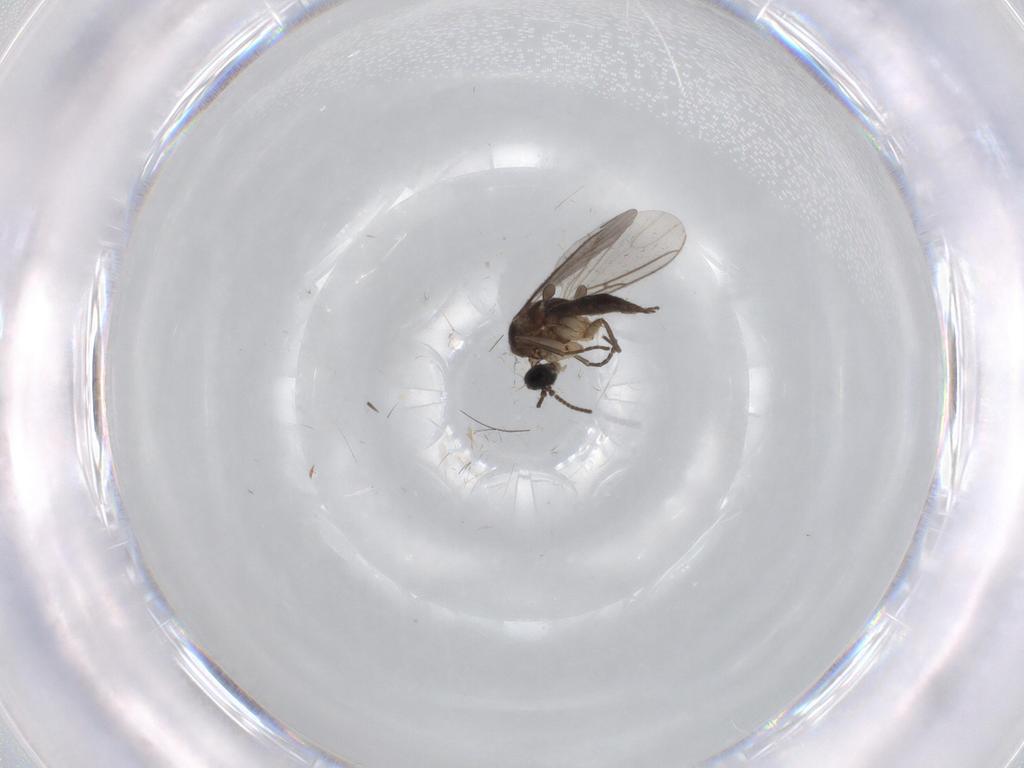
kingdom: Animalia
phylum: Arthropoda
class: Insecta
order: Diptera
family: Sciaridae
